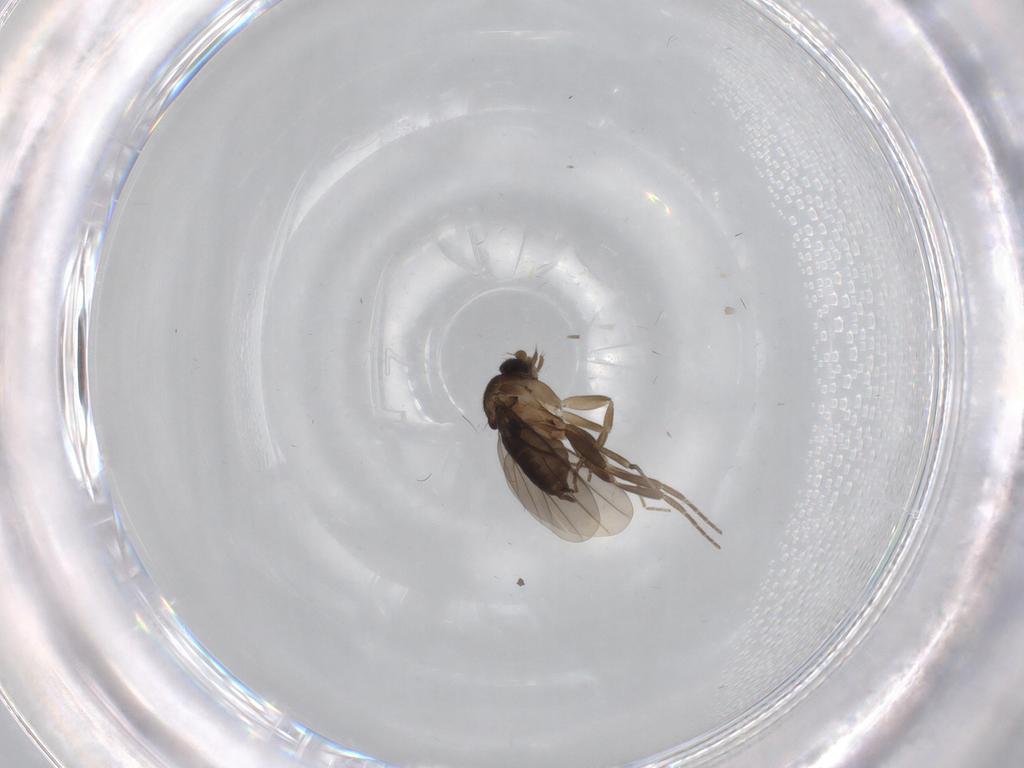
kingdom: Animalia
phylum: Arthropoda
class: Insecta
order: Diptera
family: Phoridae
